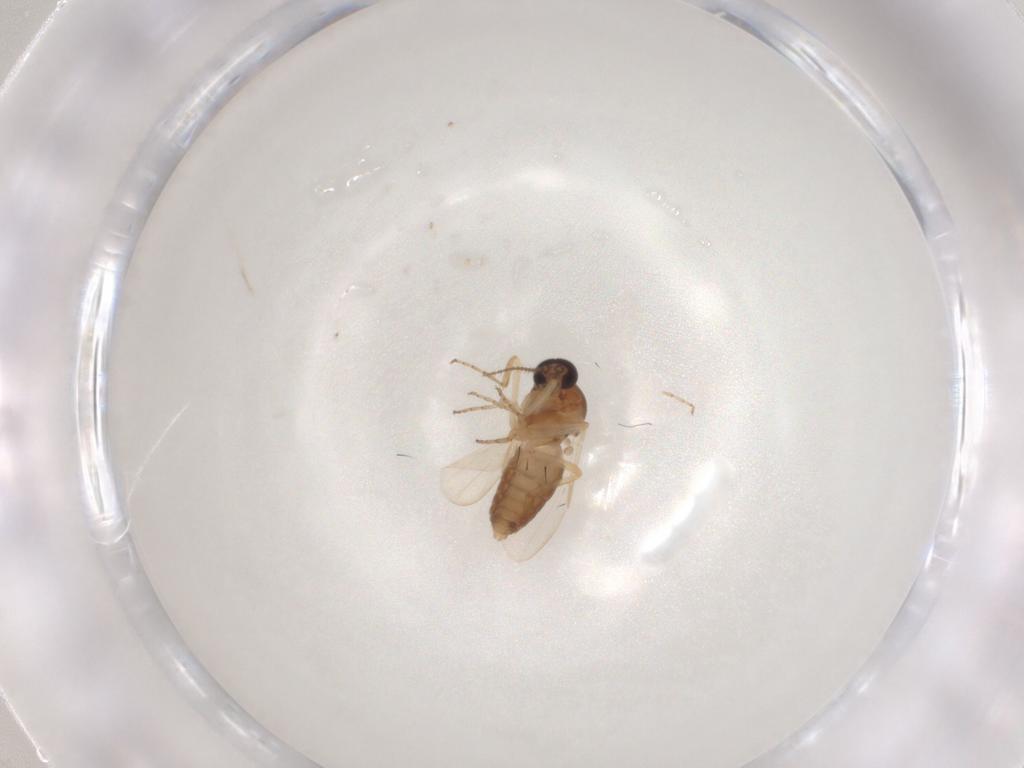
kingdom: Animalia
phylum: Arthropoda
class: Insecta
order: Diptera
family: Ceratopogonidae
